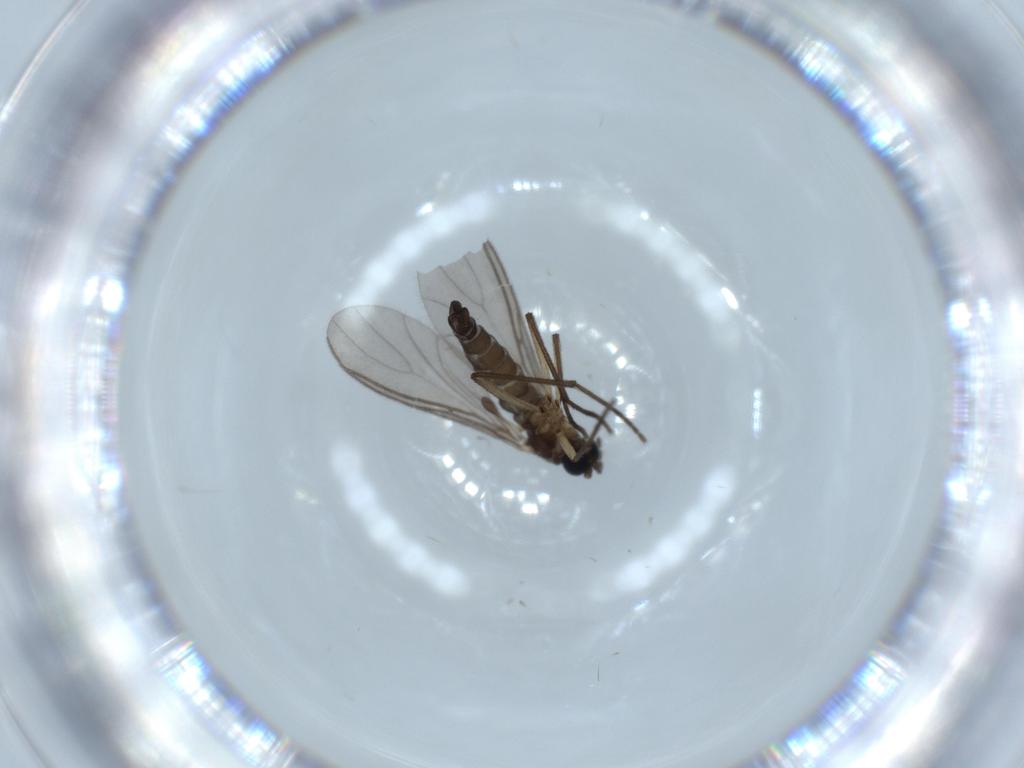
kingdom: Animalia
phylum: Arthropoda
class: Insecta
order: Diptera
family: Sciaridae
